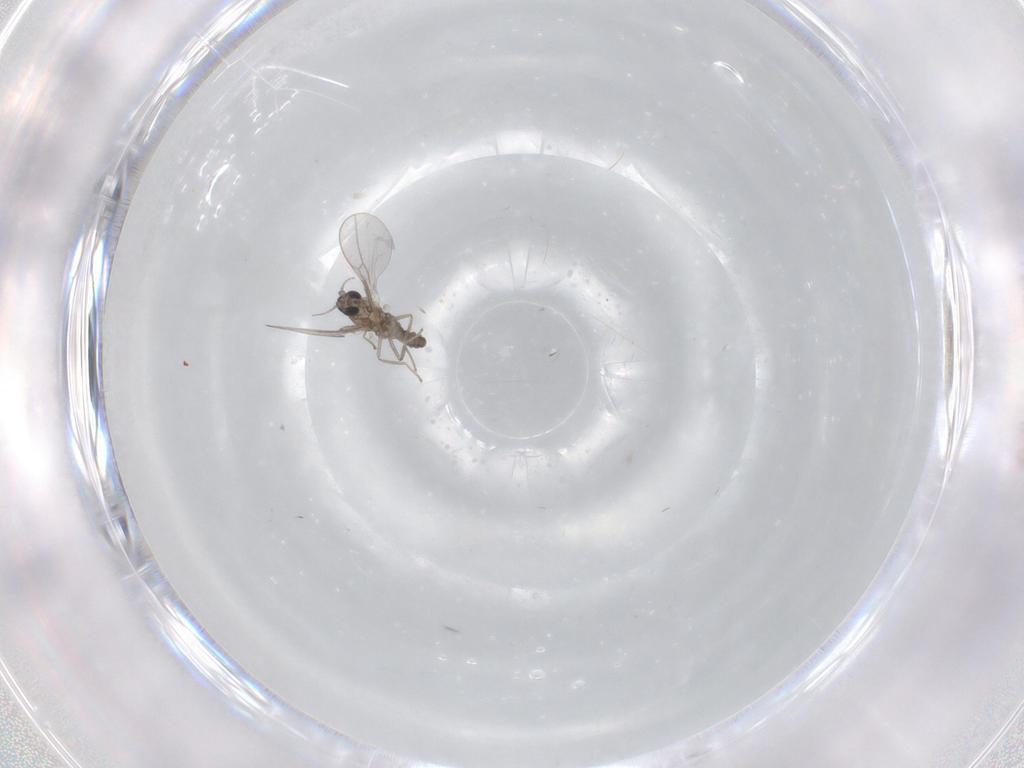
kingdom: Animalia
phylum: Arthropoda
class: Insecta
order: Diptera
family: Cecidomyiidae
